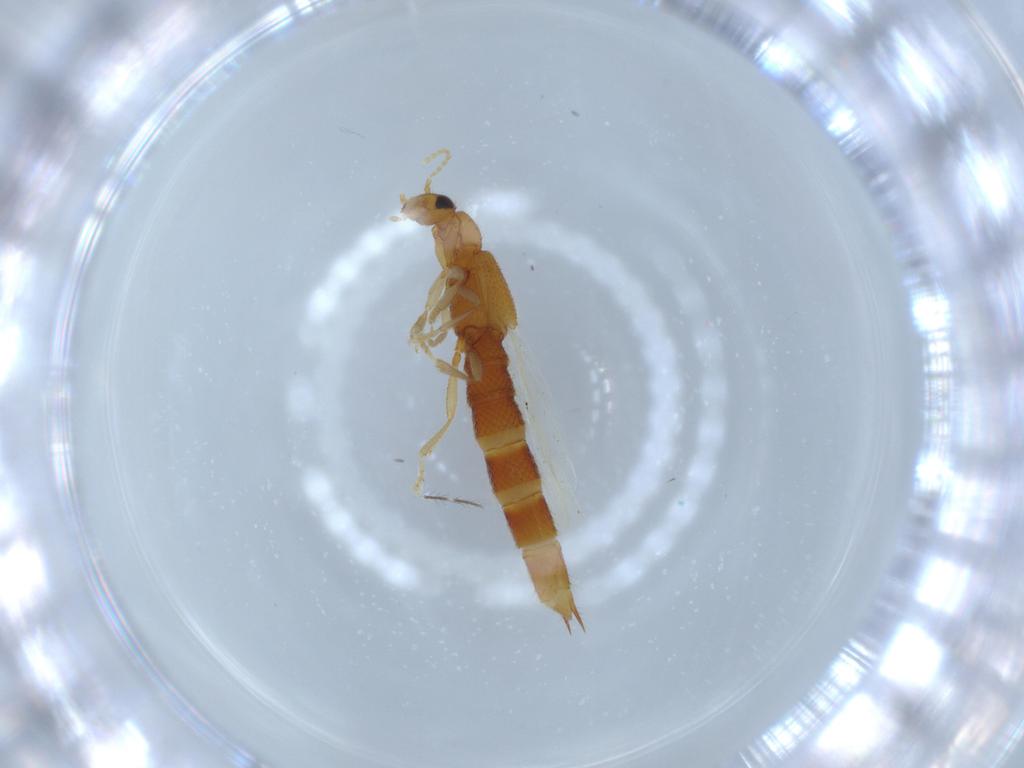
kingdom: Animalia
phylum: Arthropoda
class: Insecta
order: Coleoptera
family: Staphylinidae
